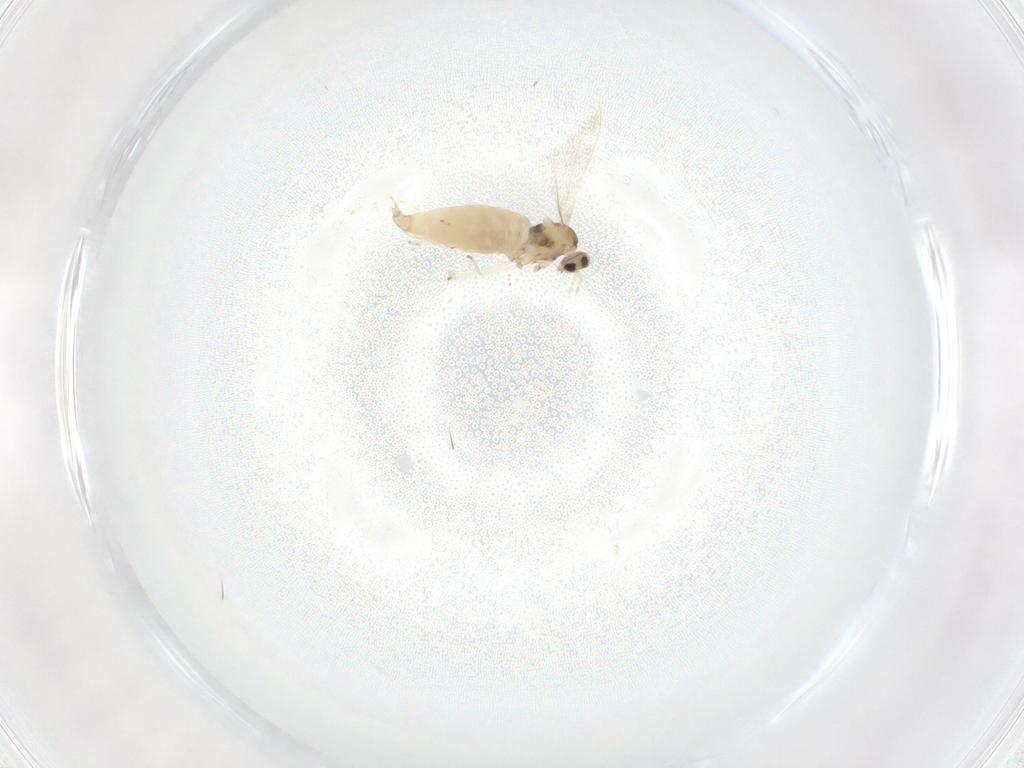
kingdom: Animalia
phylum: Arthropoda
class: Insecta
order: Diptera
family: Cecidomyiidae
